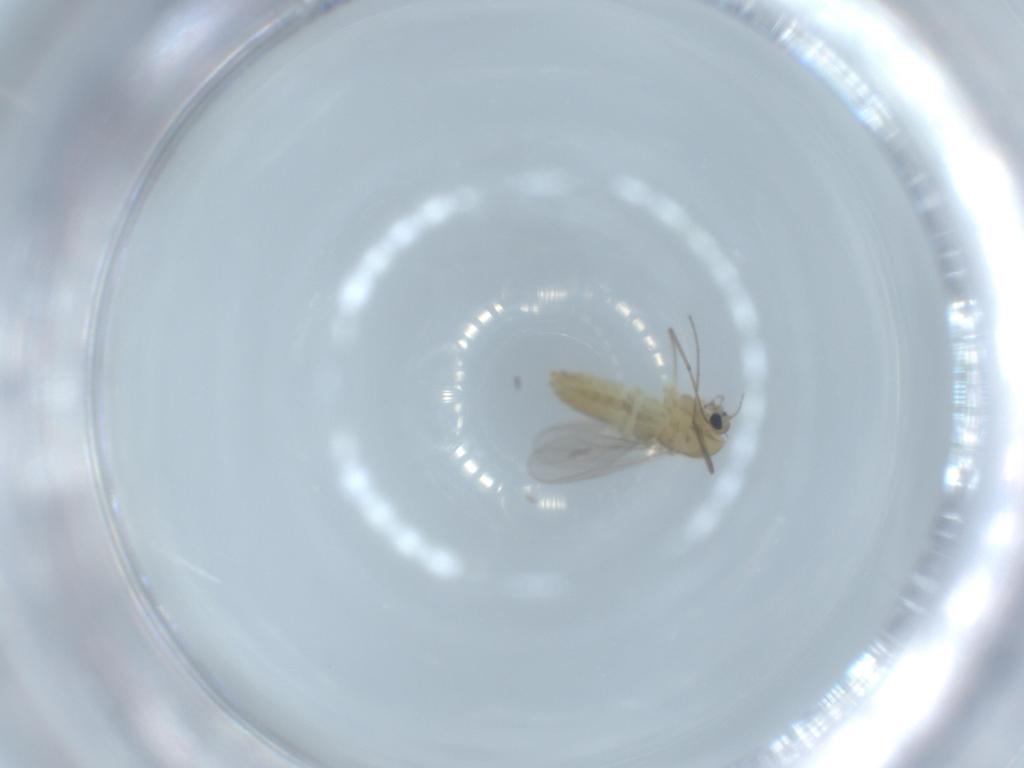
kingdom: Animalia
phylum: Arthropoda
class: Insecta
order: Diptera
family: Chironomidae
